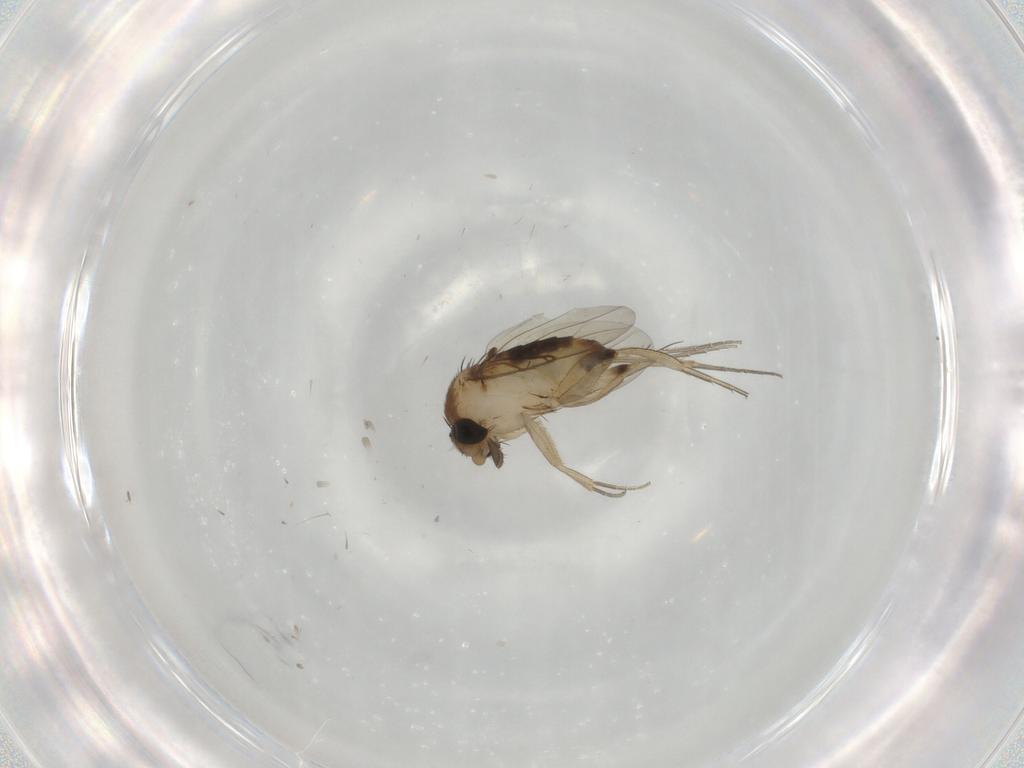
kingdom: Animalia
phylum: Arthropoda
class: Insecta
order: Diptera
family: Phoridae
